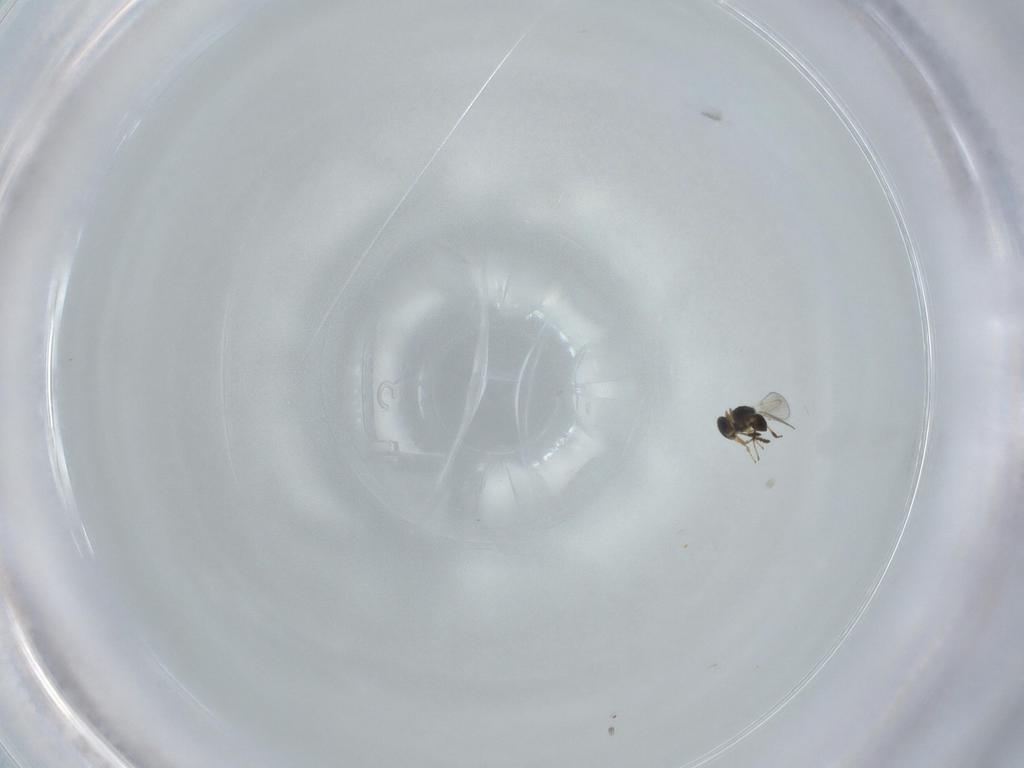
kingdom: Animalia
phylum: Arthropoda
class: Insecta
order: Hymenoptera
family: Platygastridae
